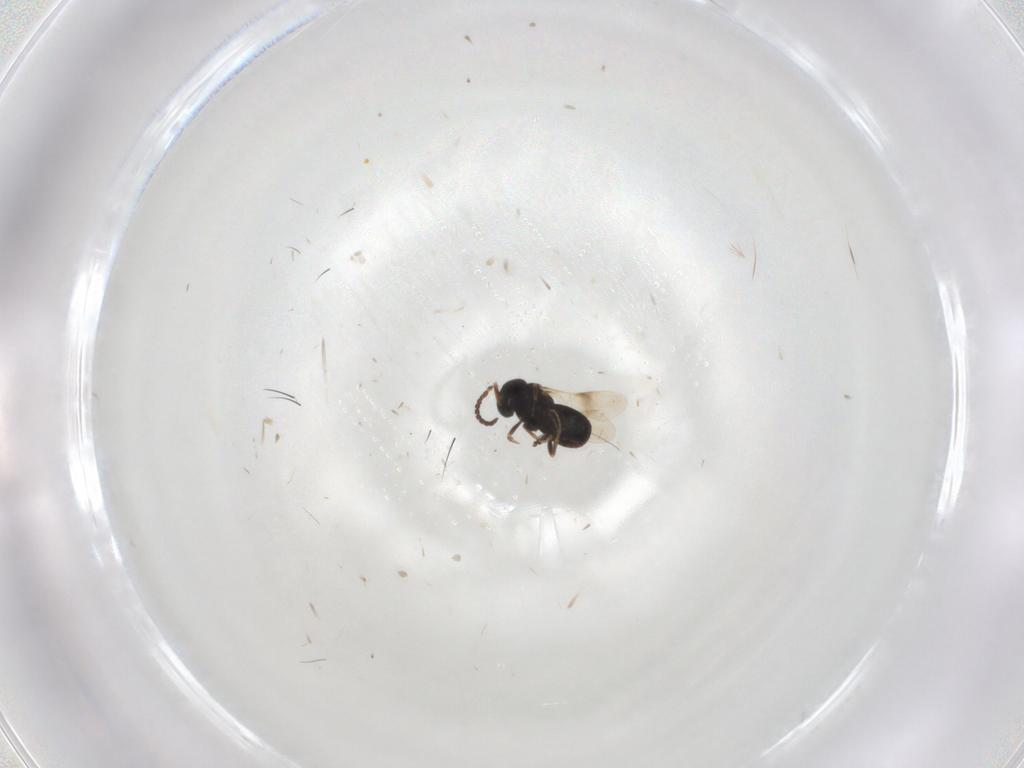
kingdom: Animalia
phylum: Arthropoda
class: Insecta
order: Hymenoptera
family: Scelionidae
